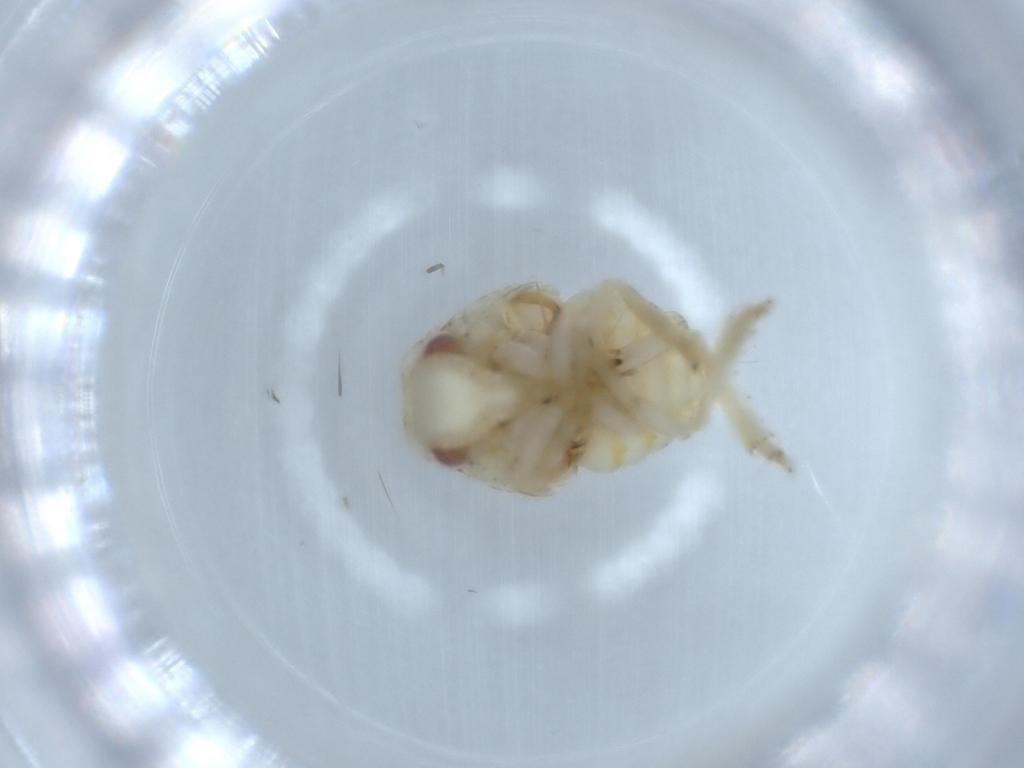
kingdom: Animalia
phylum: Arthropoda
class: Insecta
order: Hemiptera
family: Acanaloniidae
